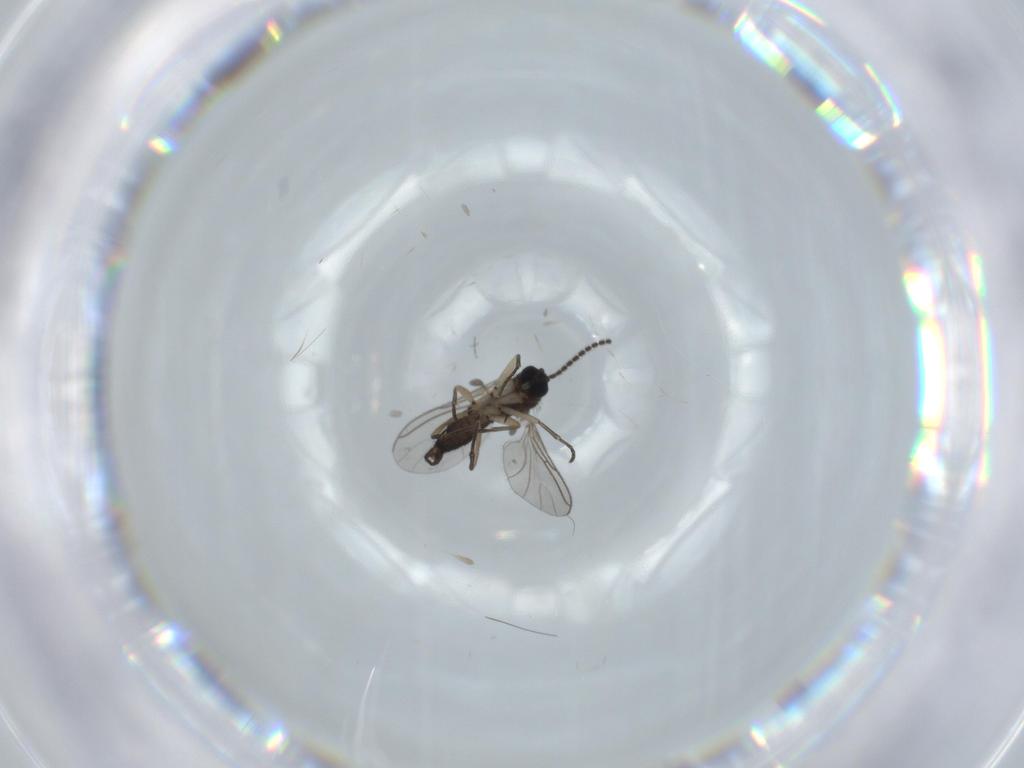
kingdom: Animalia
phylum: Arthropoda
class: Insecta
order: Diptera
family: Sciaridae
